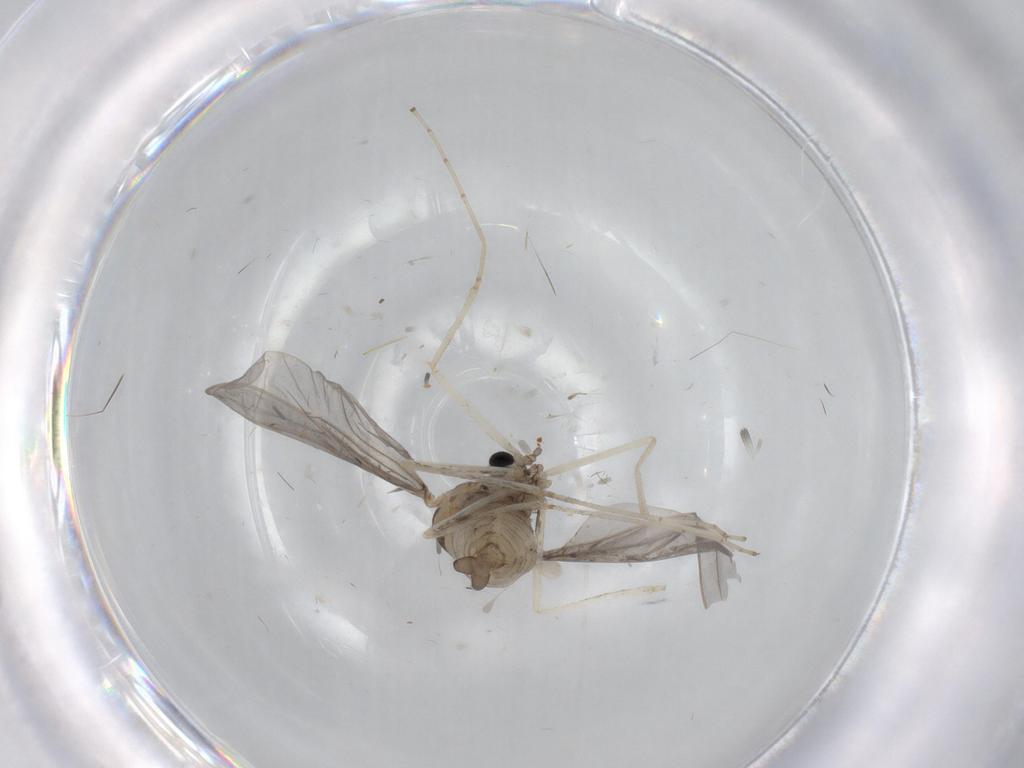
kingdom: Animalia
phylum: Arthropoda
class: Insecta
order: Diptera
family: Cecidomyiidae
